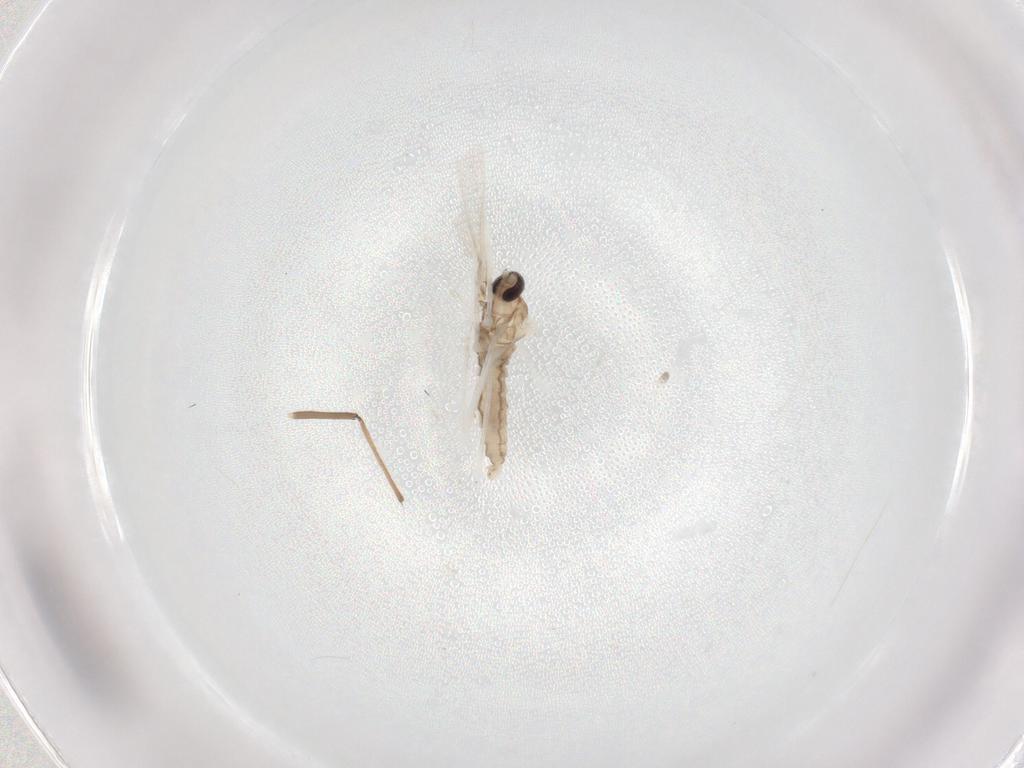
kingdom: Animalia
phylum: Arthropoda
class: Insecta
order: Diptera
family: Cecidomyiidae
